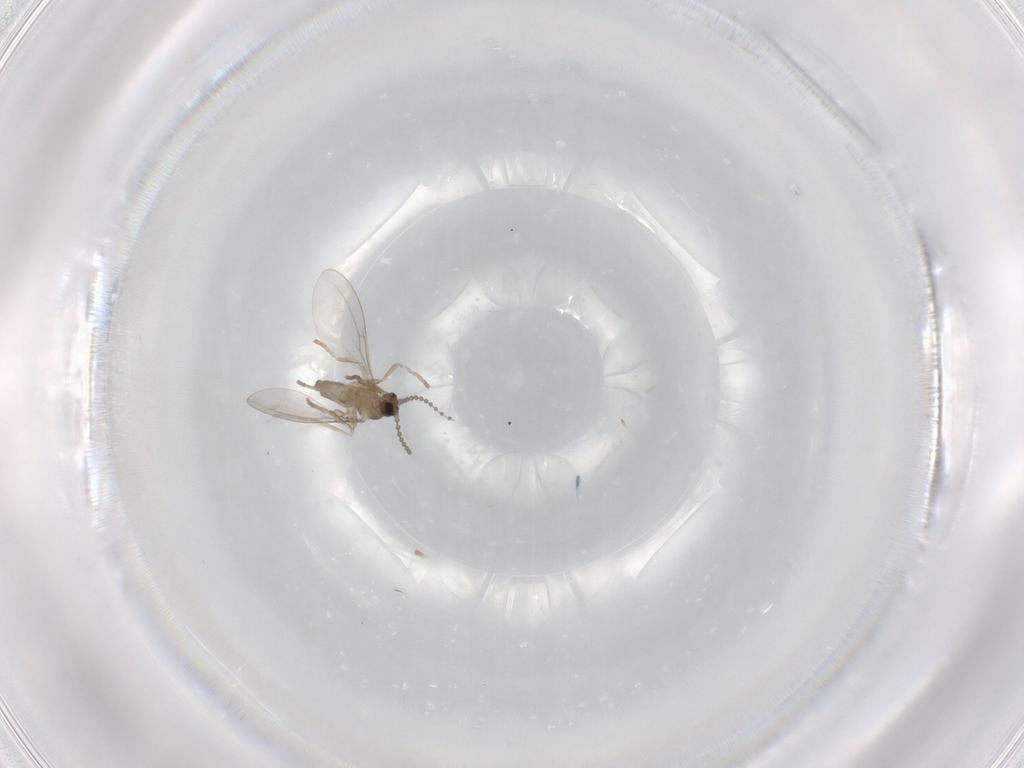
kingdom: Animalia
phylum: Arthropoda
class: Insecta
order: Diptera
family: Cecidomyiidae
